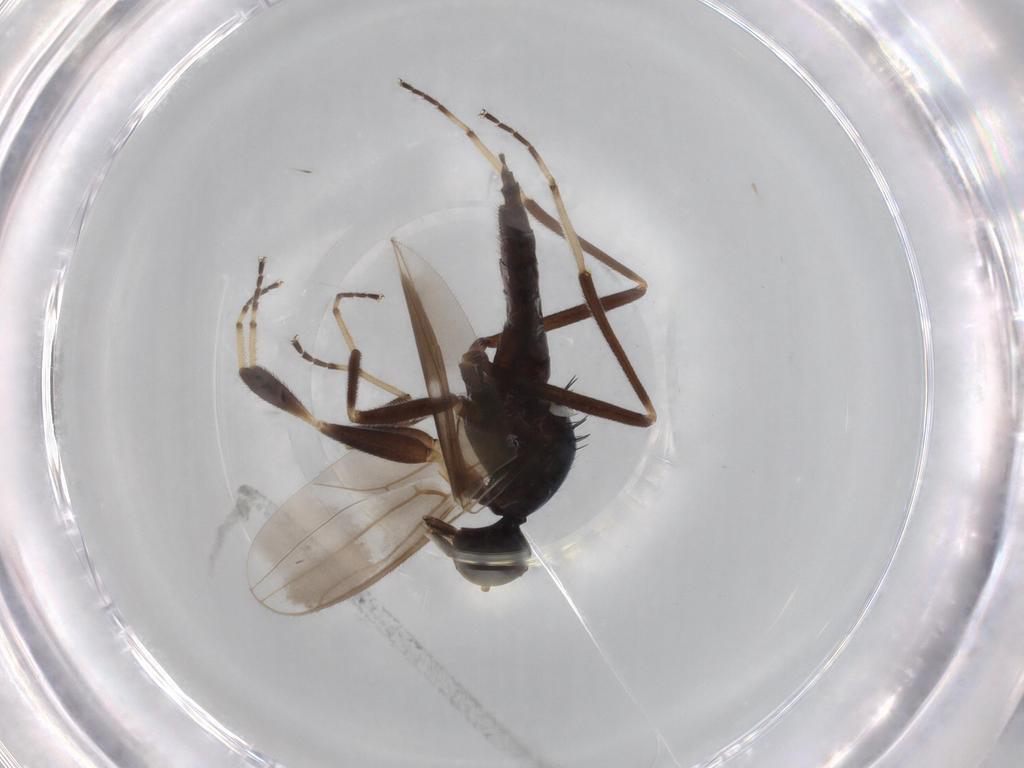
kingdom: Animalia
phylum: Arthropoda
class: Insecta
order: Diptera
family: Hybotidae
